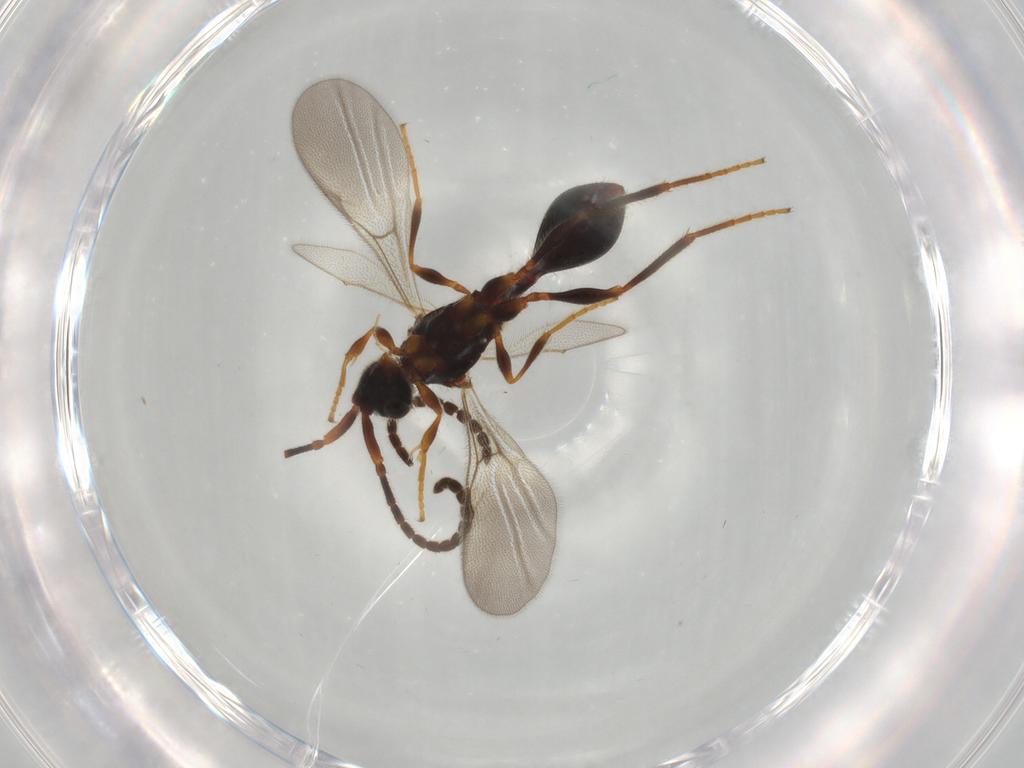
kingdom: Animalia
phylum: Arthropoda
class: Insecta
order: Hymenoptera
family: Diapriidae
